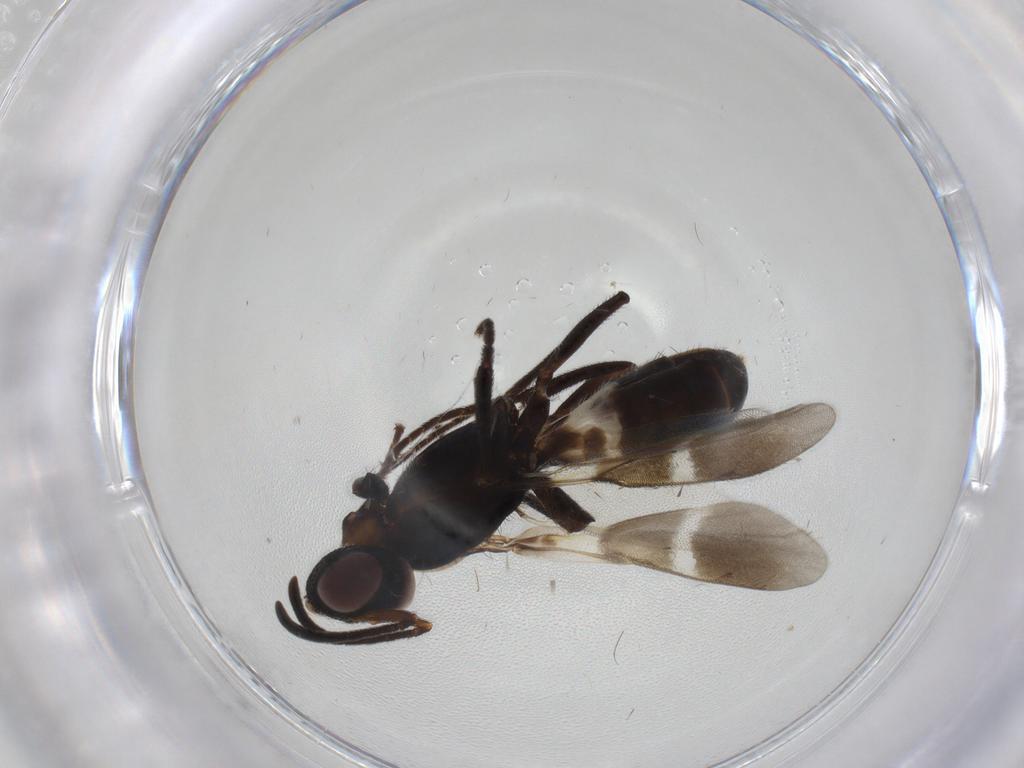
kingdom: Animalia
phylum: Arthropoda
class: Insecta
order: Hymenoptera
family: Eupelmidae
